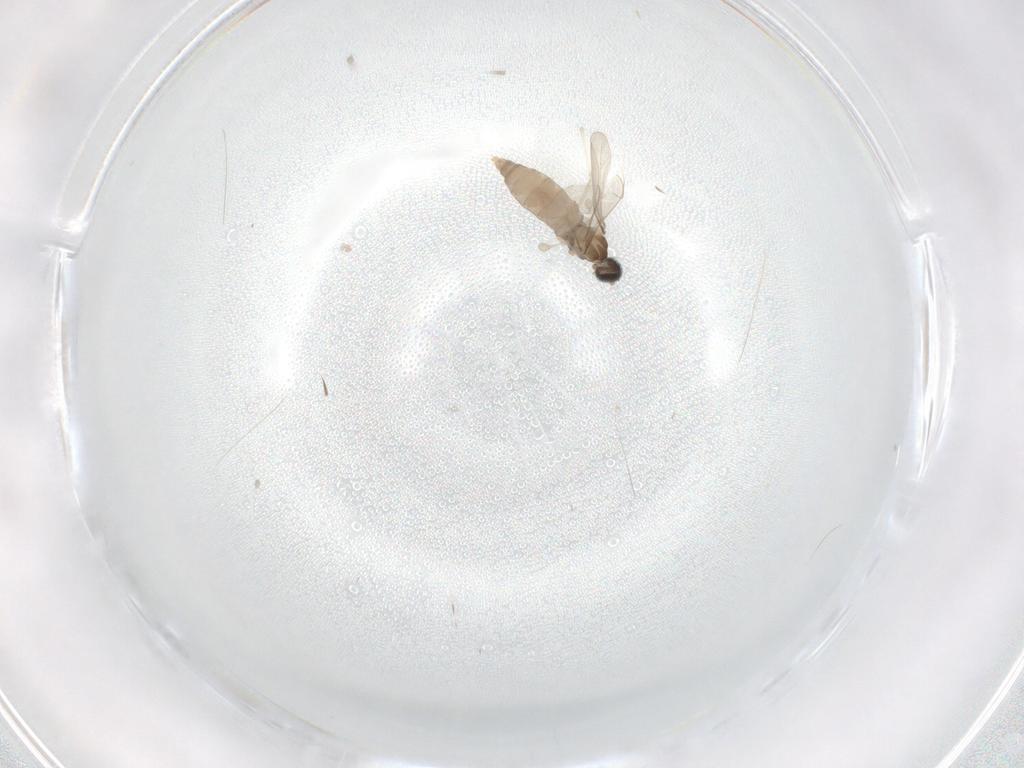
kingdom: Animalia
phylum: Arthropoda
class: Insecta
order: Diptera
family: Cecidomyiidae
